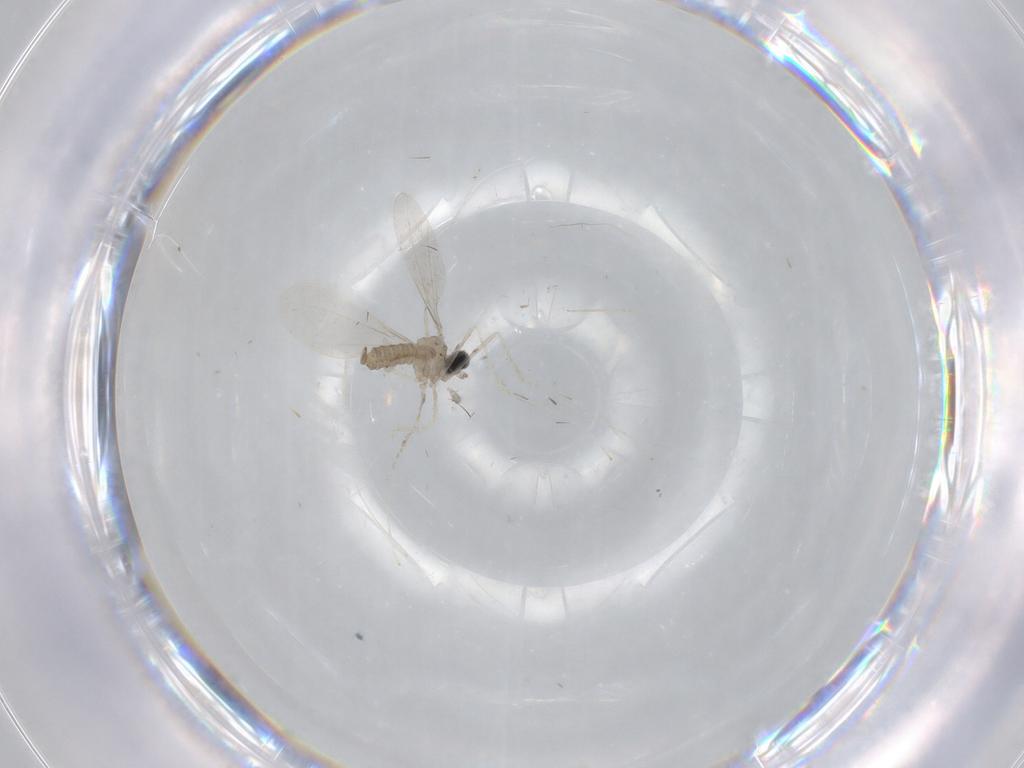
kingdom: Animalia
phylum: Arthropoda
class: Insecta
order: Diptera
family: Cecidomyiidae
